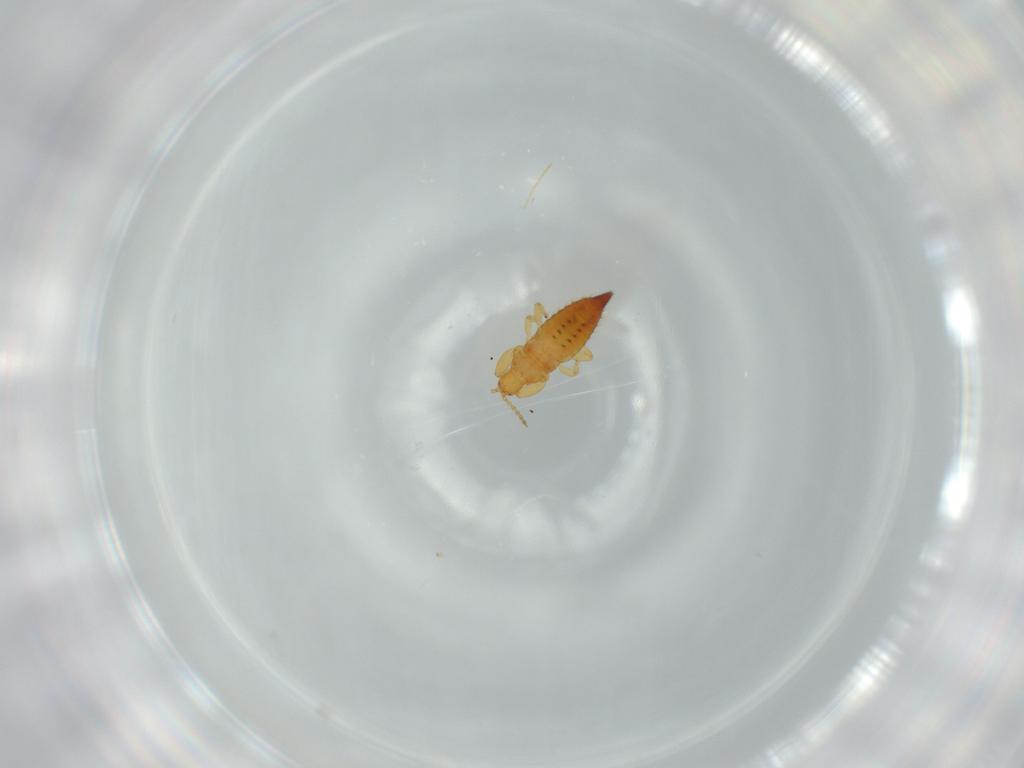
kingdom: Animalia
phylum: Arthropoda
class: Insecta
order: Thysanoptera
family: Phlaeothripidae
